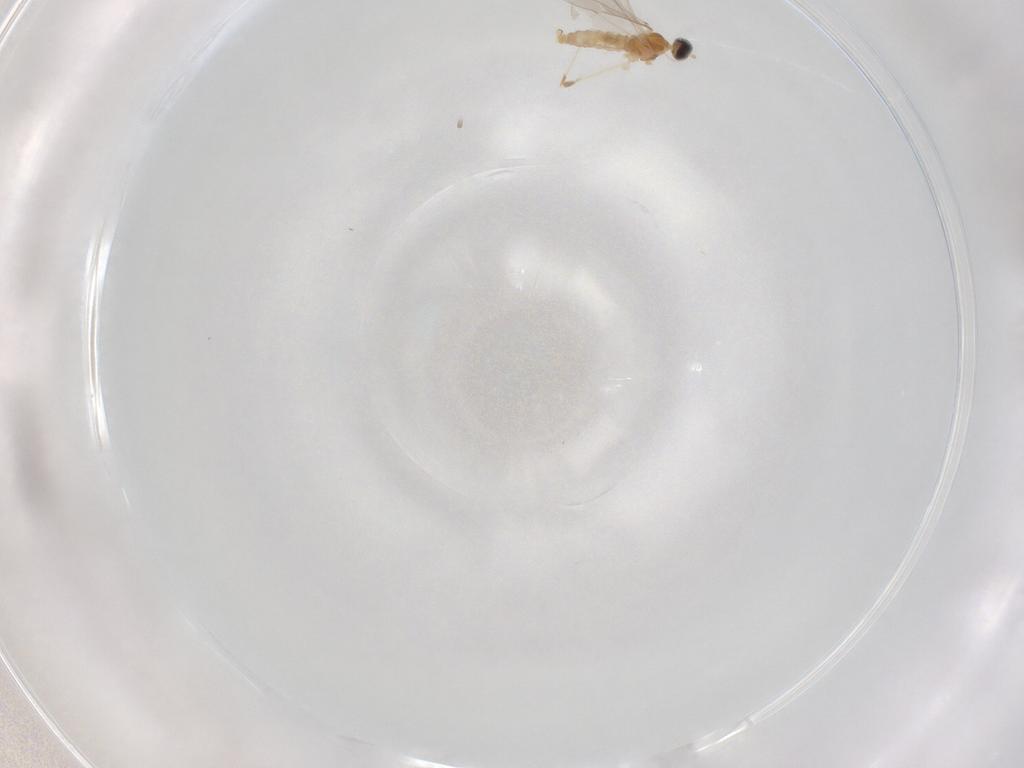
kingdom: Animalia
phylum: Arthropoda
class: Insecta
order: Diptera
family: Cecidomyiidae
